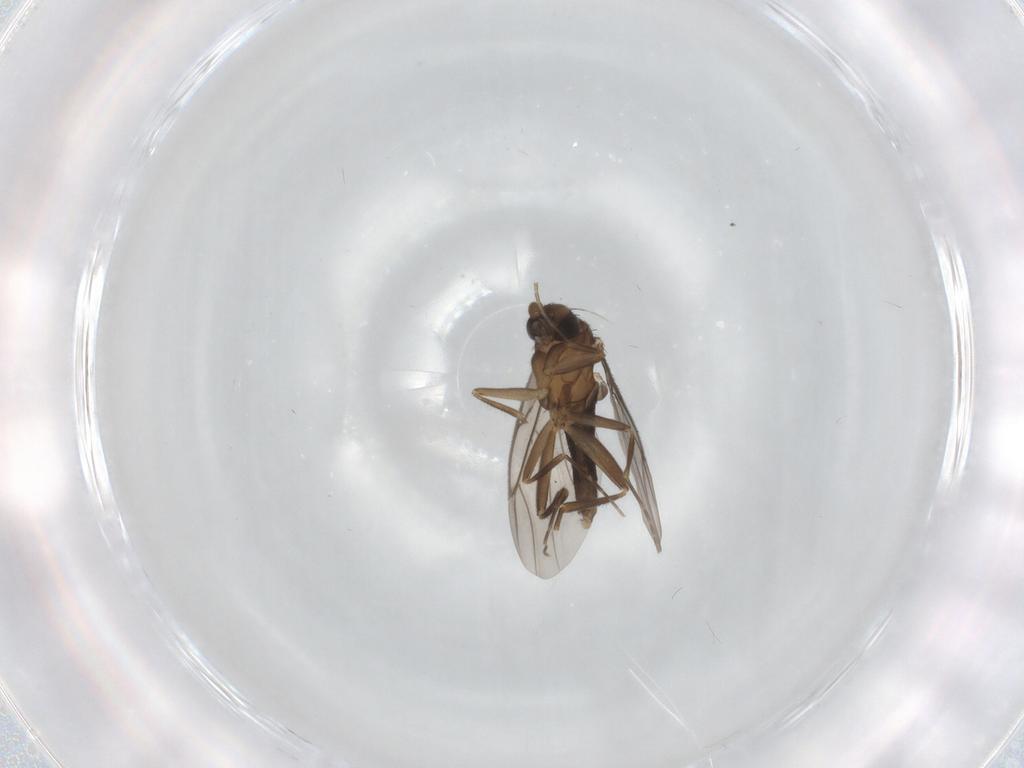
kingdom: Animalia
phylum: Arthropoda
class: Insecta
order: Diptera
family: Phoridae
